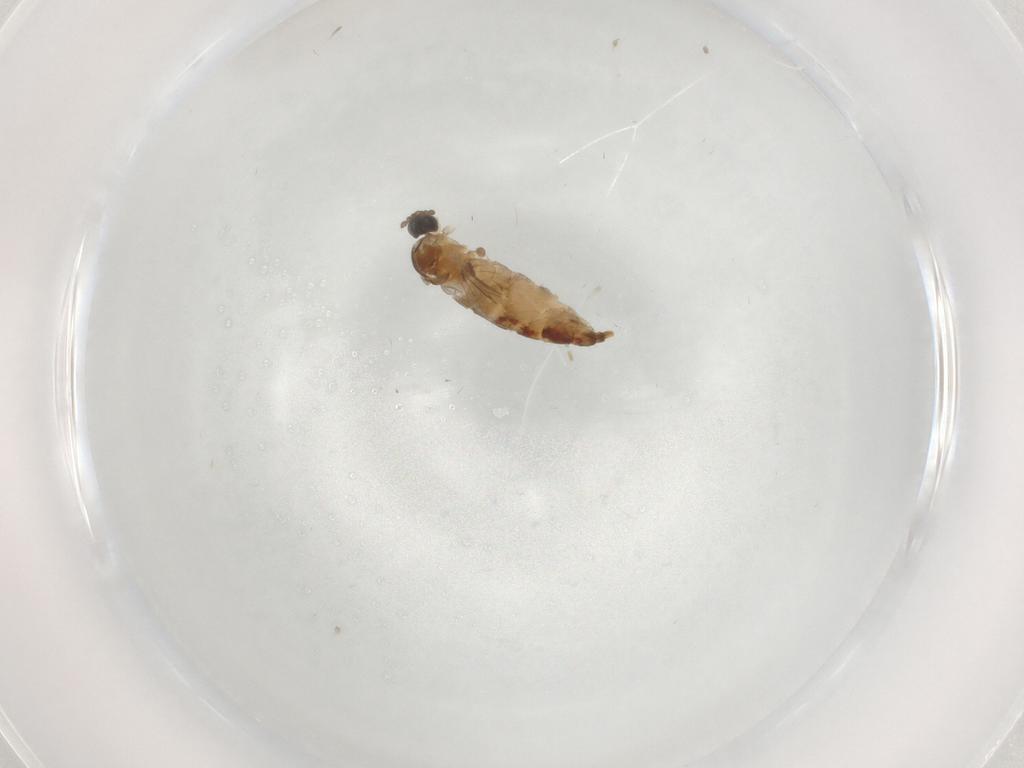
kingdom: Animalia
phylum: Arthropoda
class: Insecta
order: Diptera
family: Cecidomyiidae
